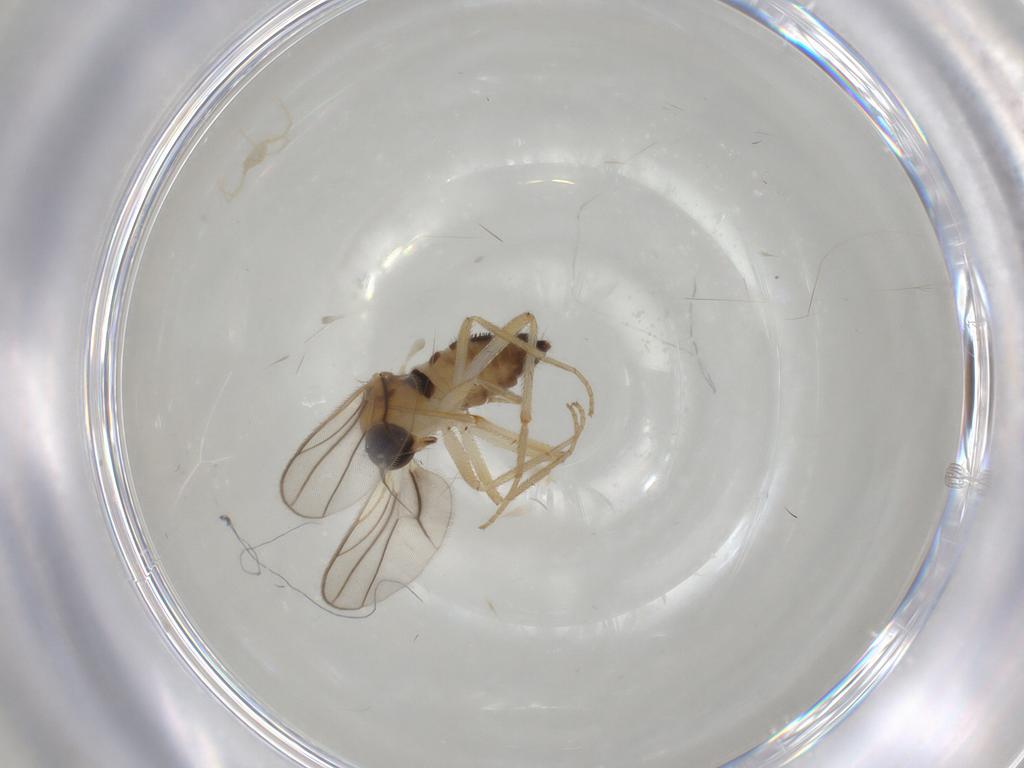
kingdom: Animalia
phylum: Arthropoda
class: Insecta
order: Diptera
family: Hybotidae
